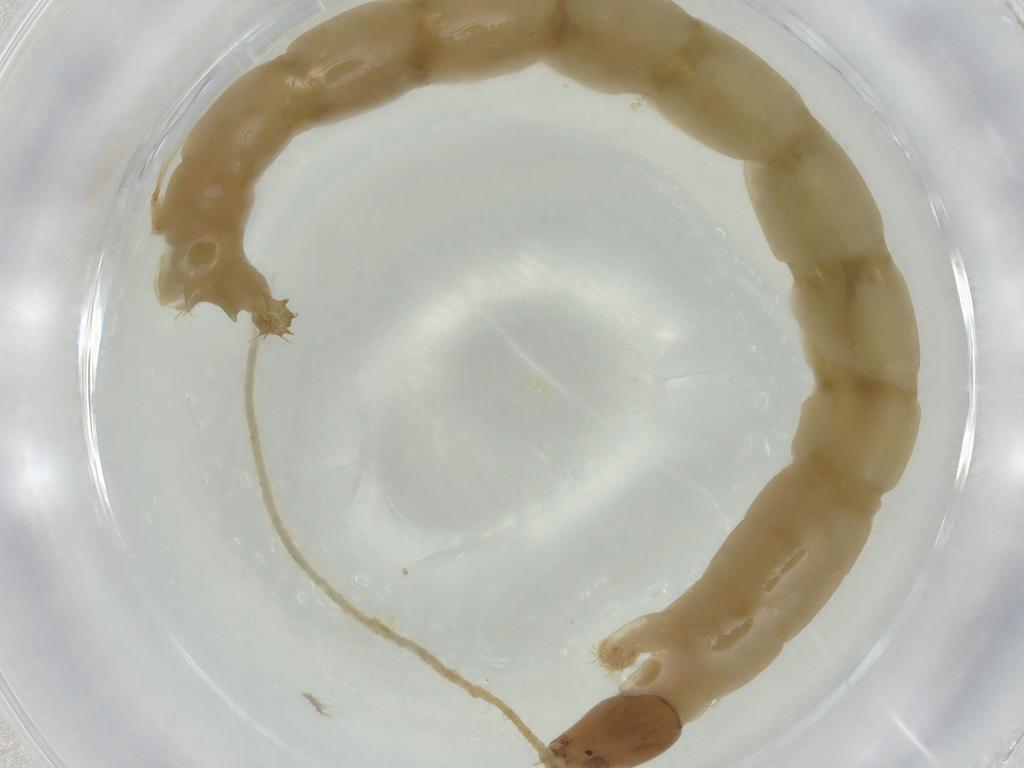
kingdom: Animalia
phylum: Arthropoda
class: Insecta
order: Diptera
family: Chironomidae
